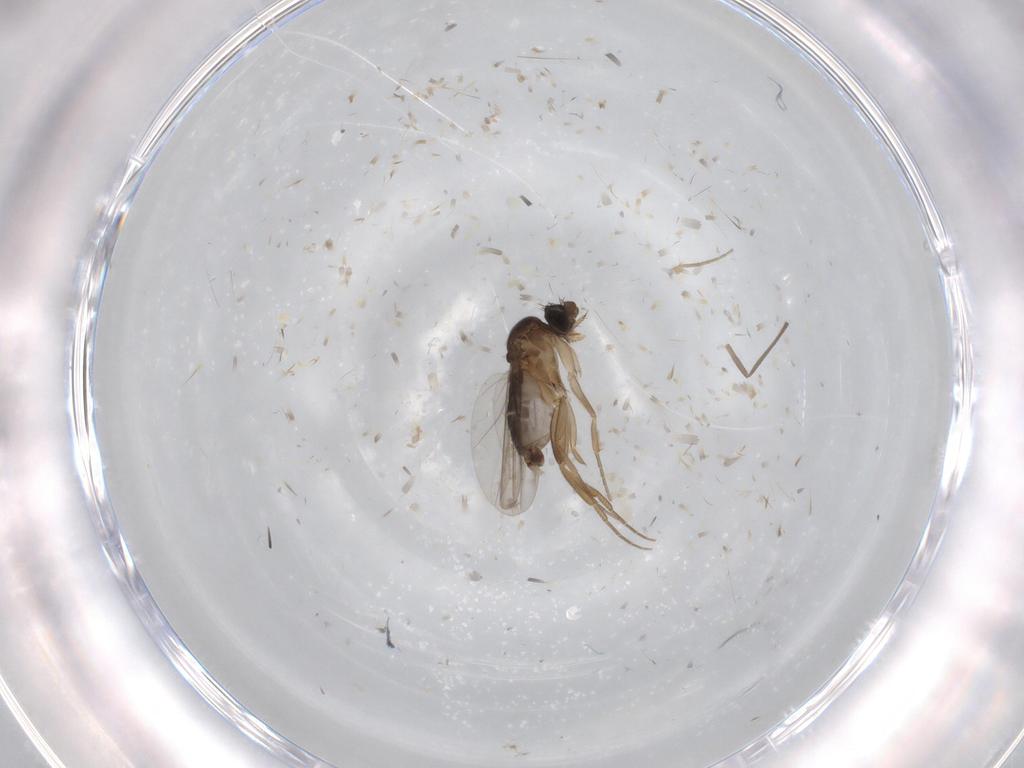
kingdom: Animalia
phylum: Arthropoda
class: Insecta
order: Diptera
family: Phoridae
